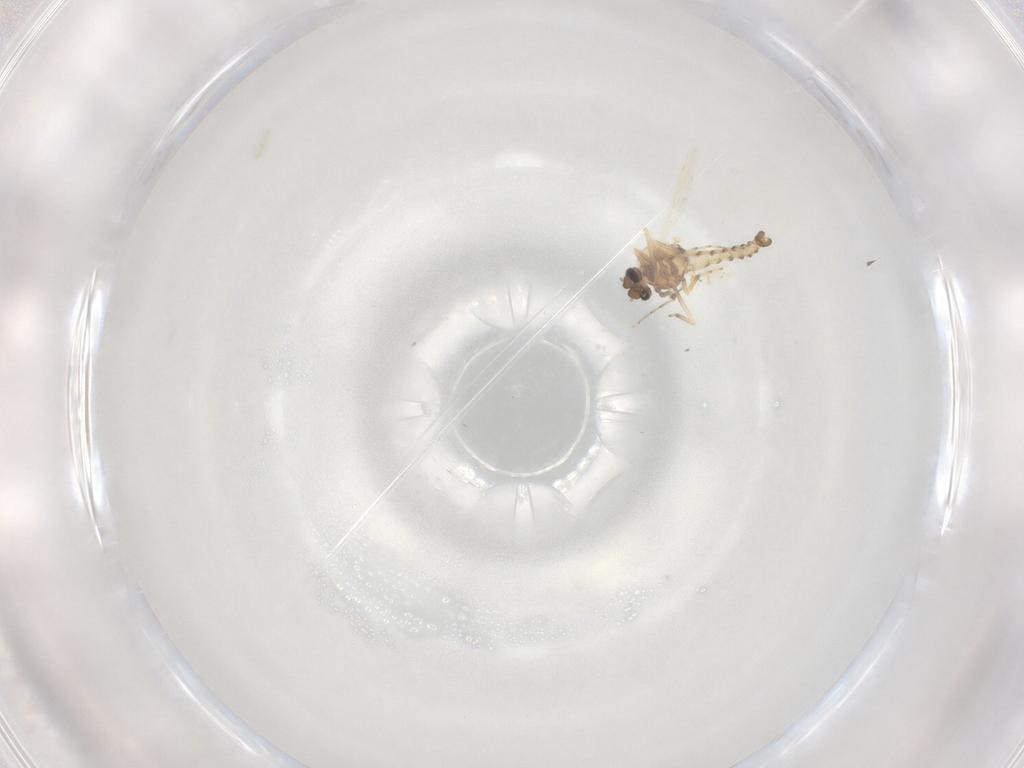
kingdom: Animalia
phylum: Arthropoda
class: Insecta
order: Diptera
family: Ceratopogonidae
